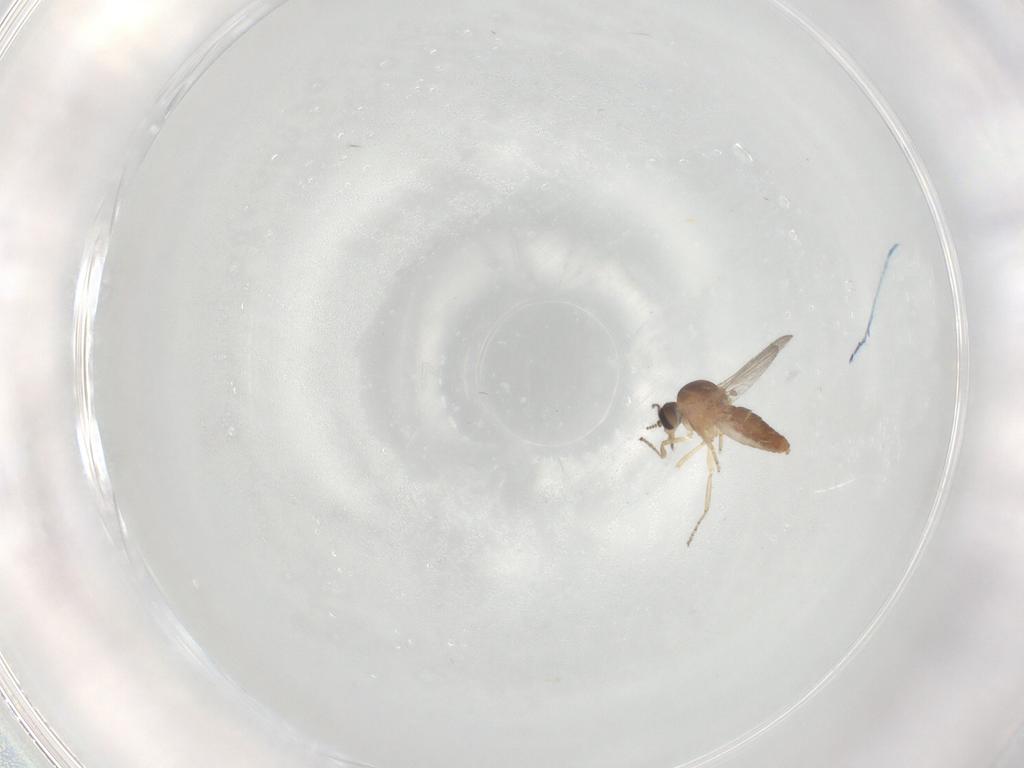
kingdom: Animalia
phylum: Arthropoda
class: Insecta
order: Diptera
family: Ceratopogonidae
